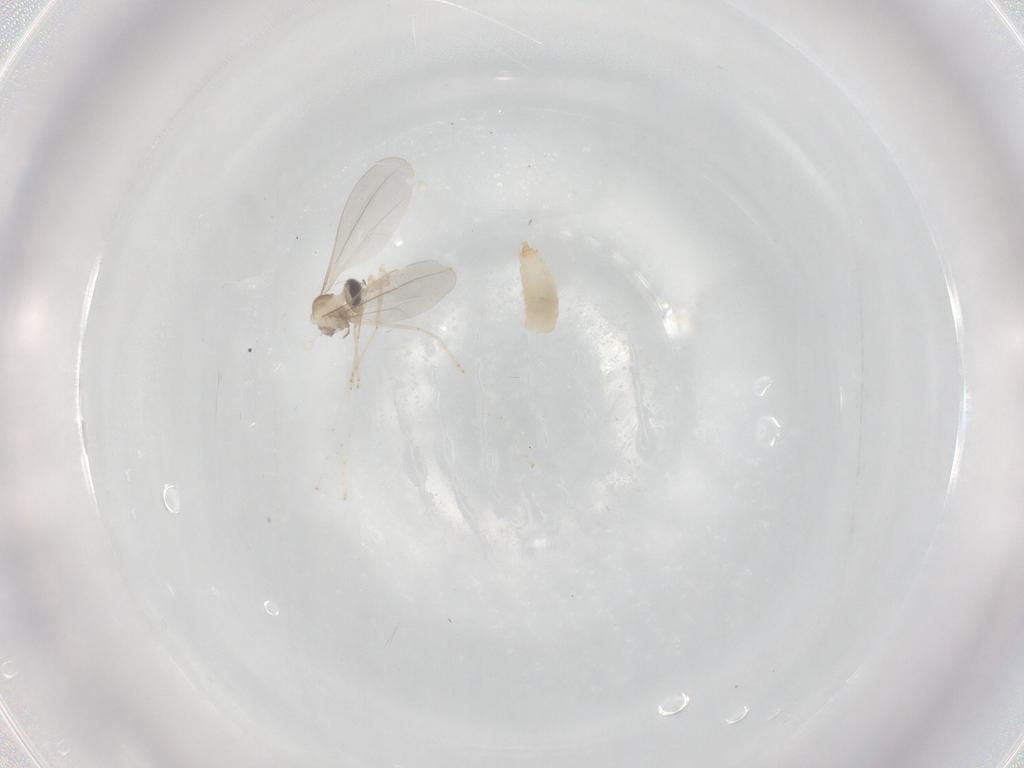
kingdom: Animalia
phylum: Arthropoda
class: Insecta
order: Diptera
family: Cecidomyiidae
